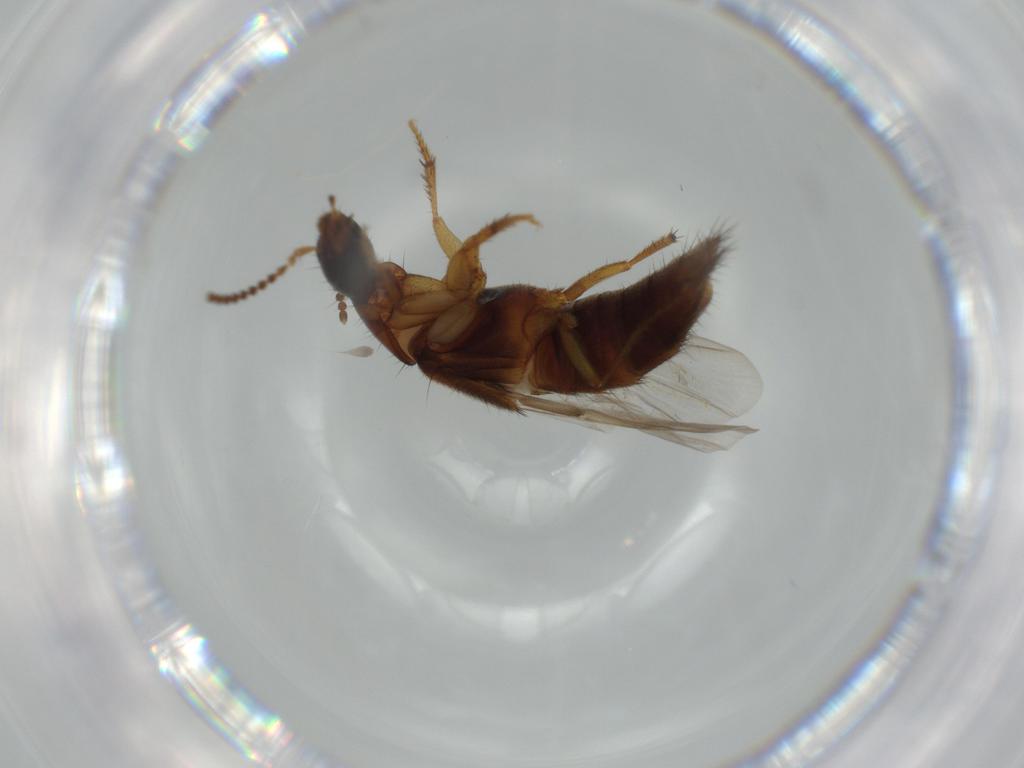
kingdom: Animalia
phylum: Arthropoda
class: Insecta
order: Coleoptera
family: Staphylinidae
